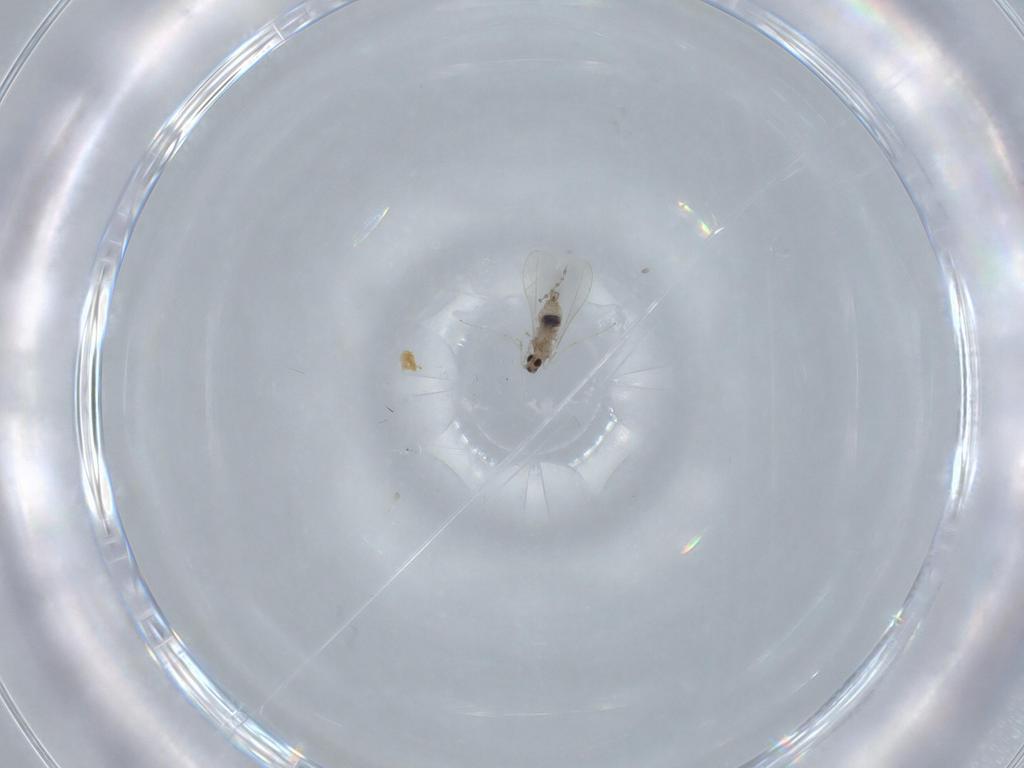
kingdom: Animalia
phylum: Arthropoda
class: Insecta
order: Diptera
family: Cecidomyiidae
